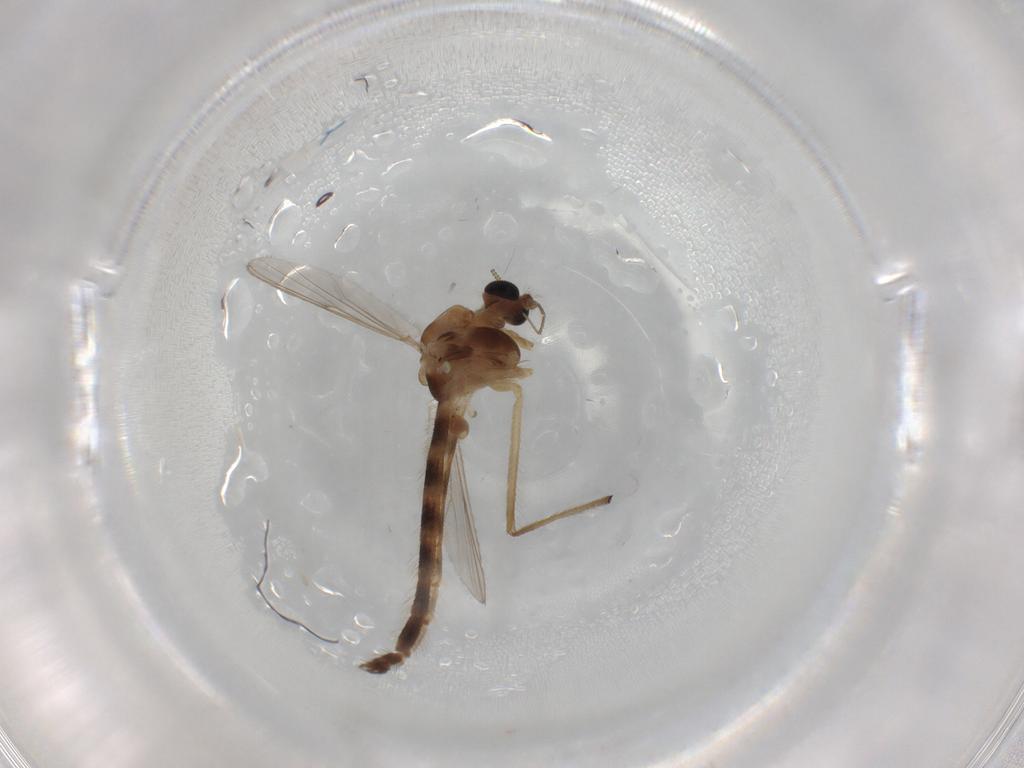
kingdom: Animalia
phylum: Arthropoda
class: Insecta
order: Diptera
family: Chironomidae
